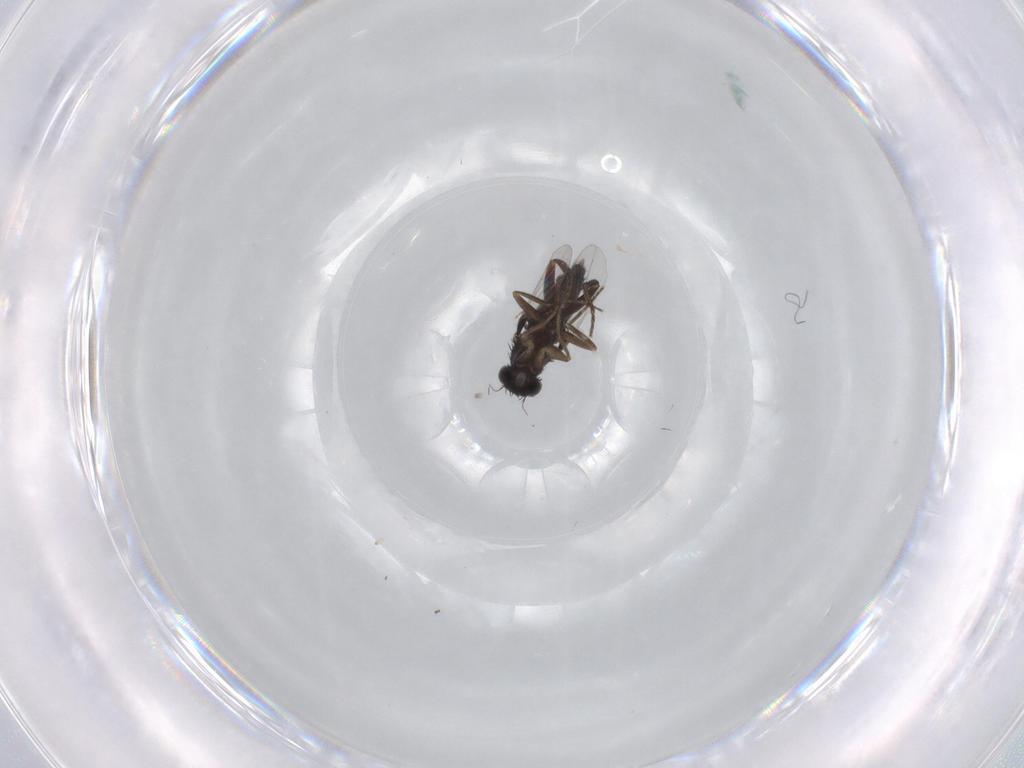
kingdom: Animalia
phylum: Arthropoda
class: Insecta
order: Diptera
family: Phoridae
